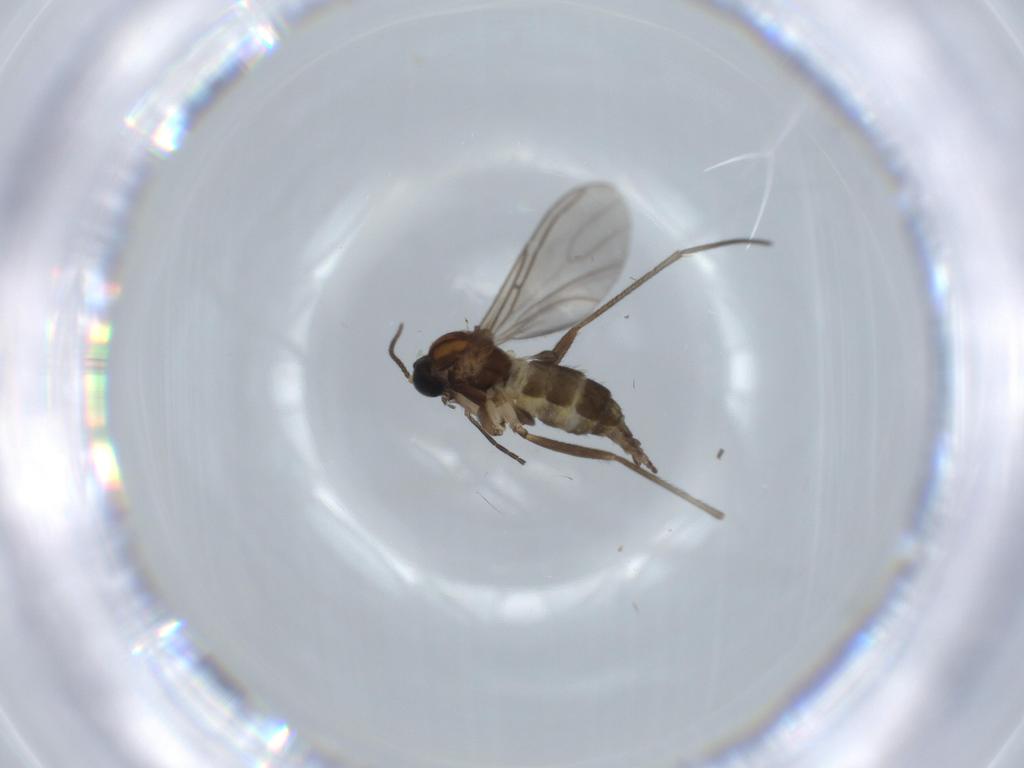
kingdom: Animalia
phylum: Arthropoda
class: Insecta
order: Diptera
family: Sciaridae
